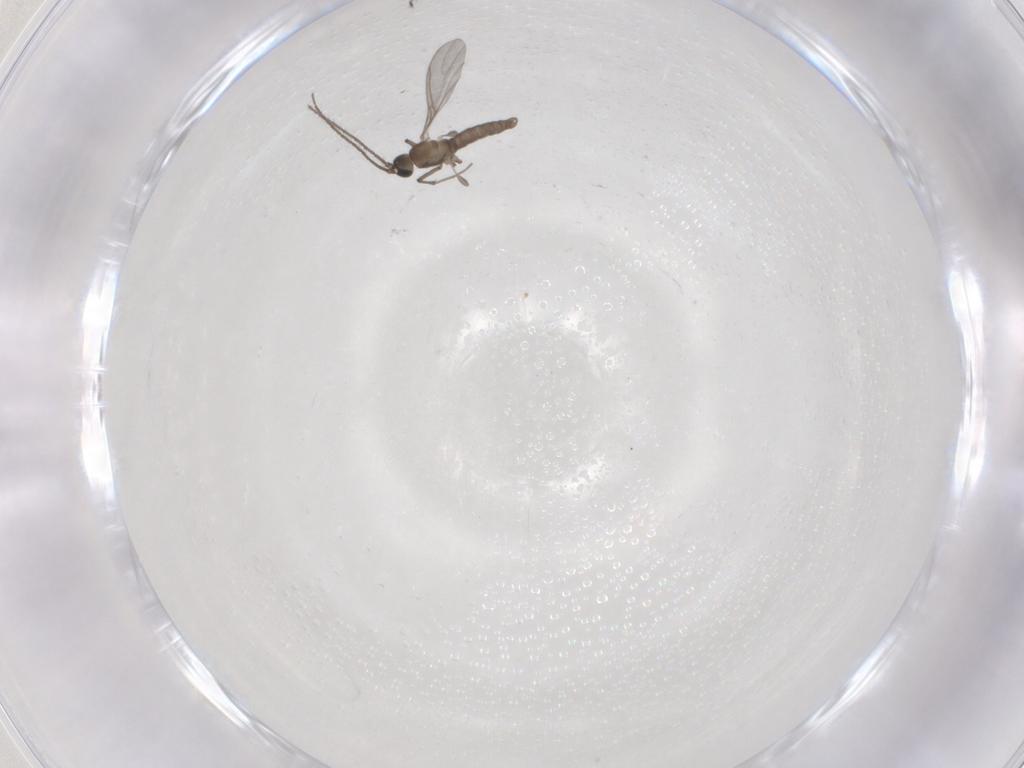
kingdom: Animalia
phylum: Arthropoda
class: Insecta
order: Diptera
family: Sciaridae
